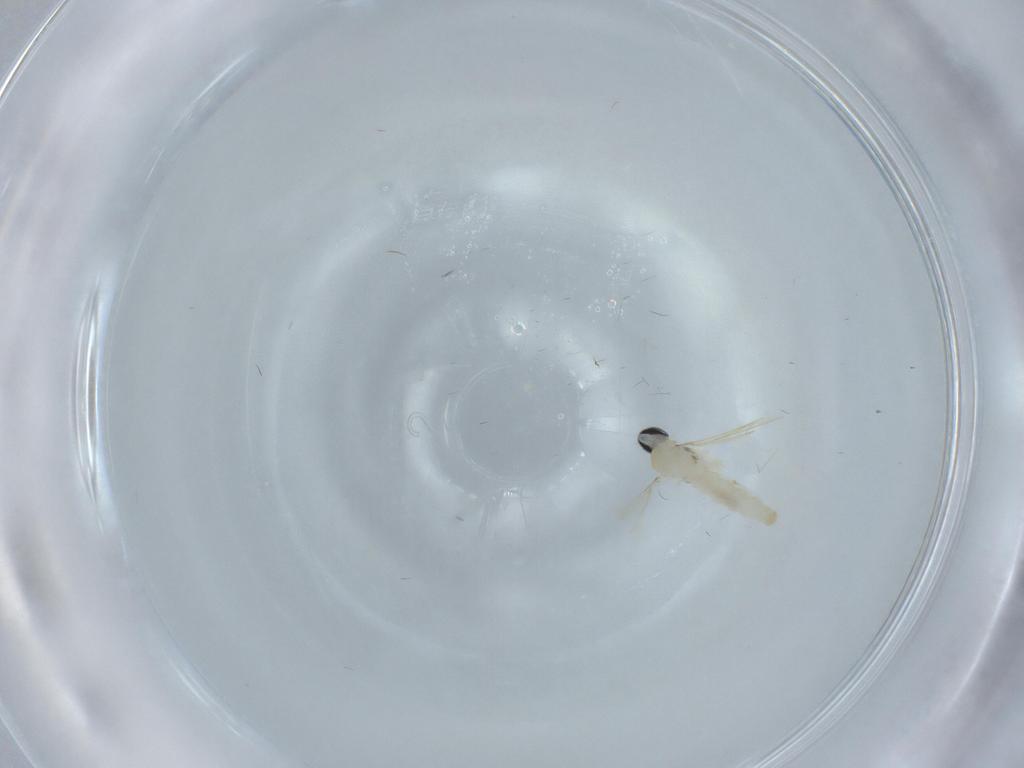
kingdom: Animalia
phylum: Arthropoda
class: Insecta
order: Diptera
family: Cecidomyiidae
